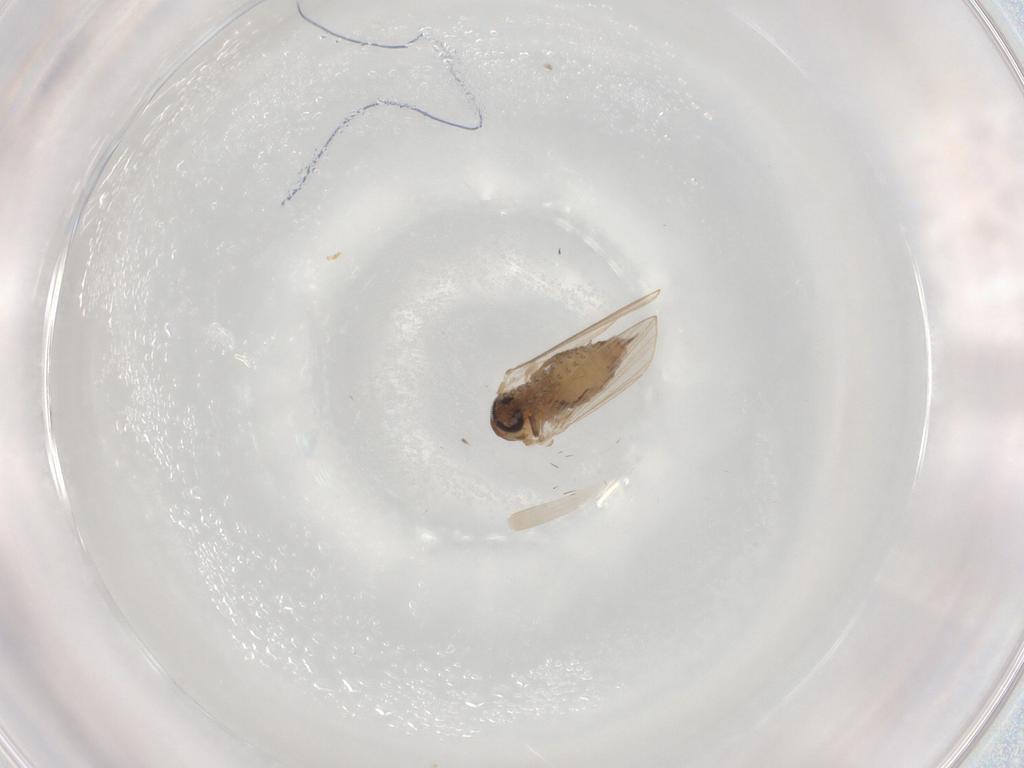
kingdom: Animalia
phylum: Arthropoda
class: Insecta
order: Diptera
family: Psychodidae
